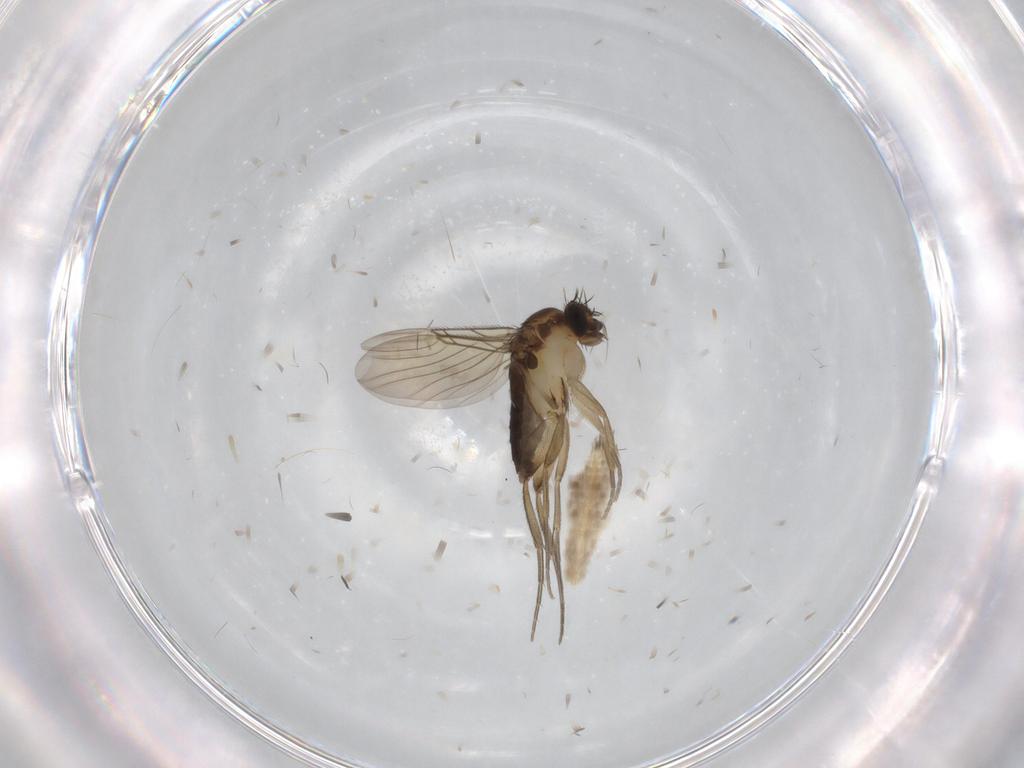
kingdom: Animalia
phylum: Arthropoda
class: Insecta
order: Diptera
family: Phoridae
